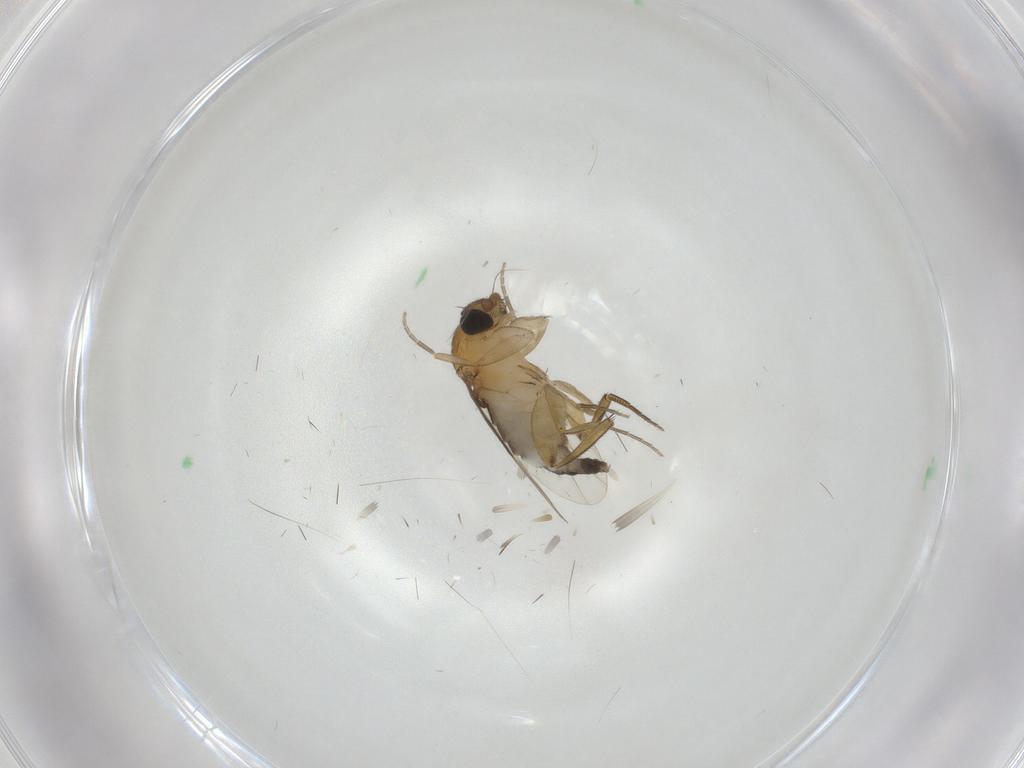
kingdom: Animalia
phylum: Arthropoda
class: Insecta
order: Diptera
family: Phoridae
